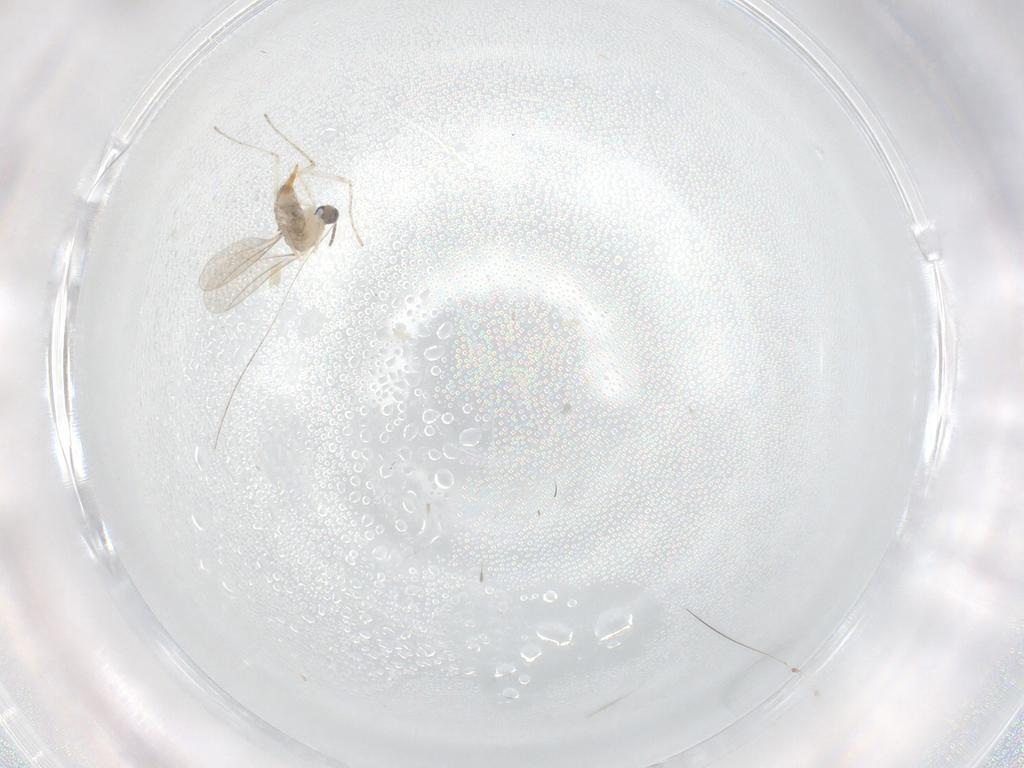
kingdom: Animalia
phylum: Arthropoda
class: Insecta
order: Diptera
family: Cecidomyiidae
